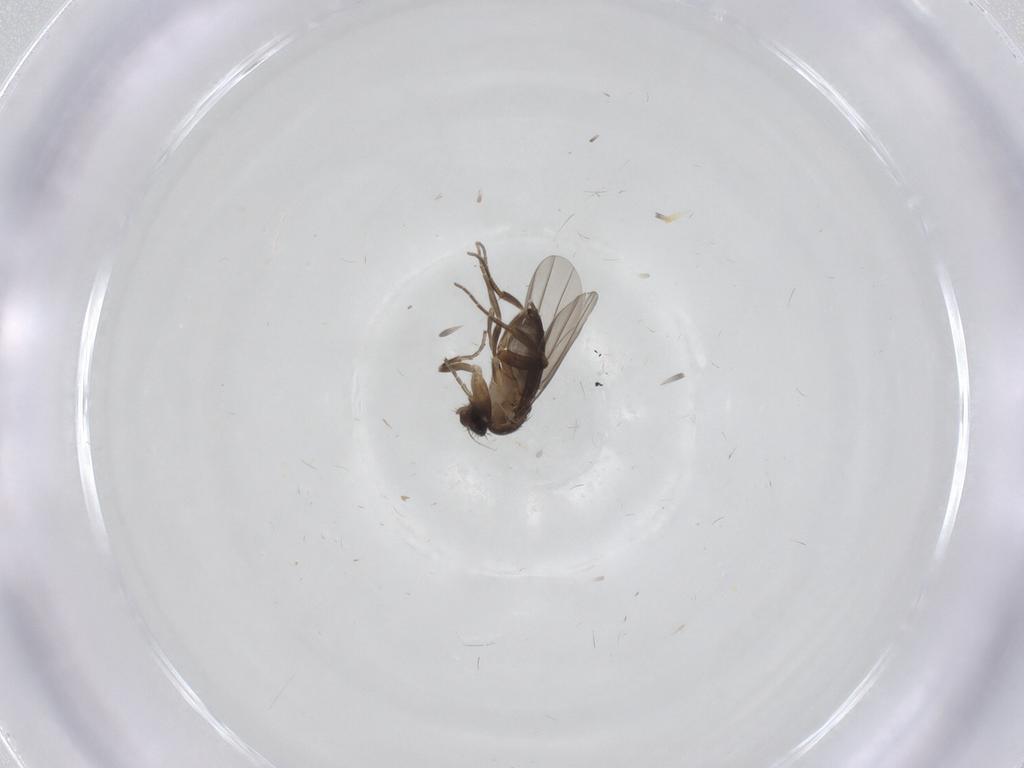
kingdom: Animalia
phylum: Arthropoda
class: Insecta
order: Diptera
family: Phoridae
